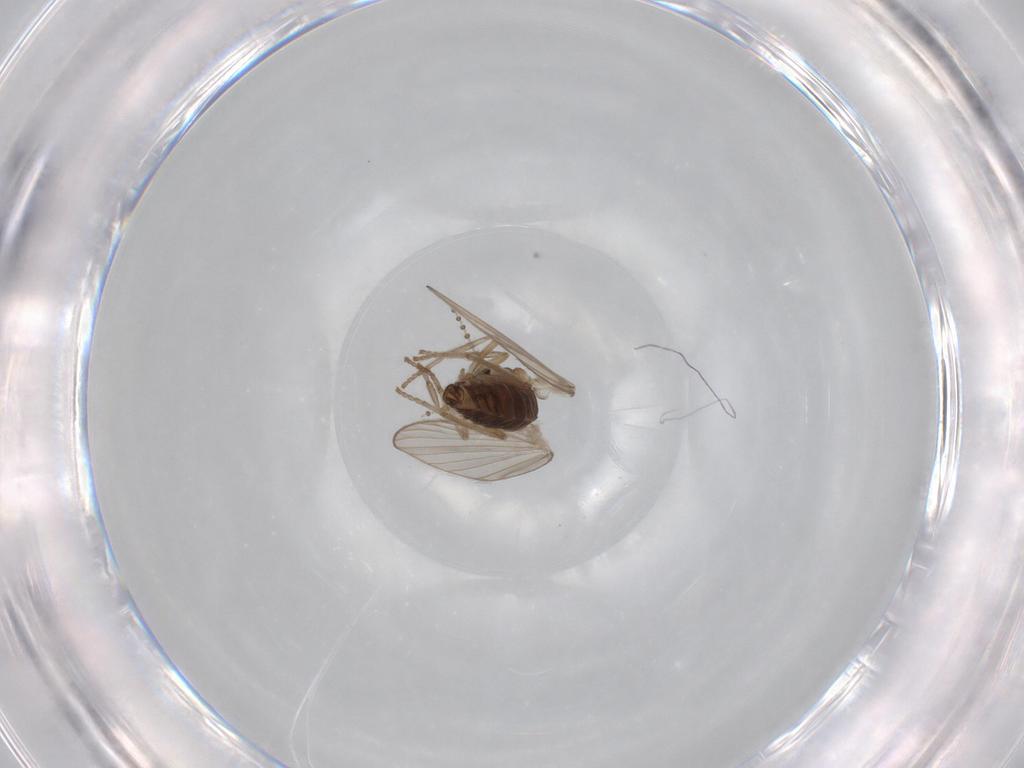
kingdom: Animalia
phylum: Arthropoda
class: Insecta
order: Diptera
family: Psychodidae
